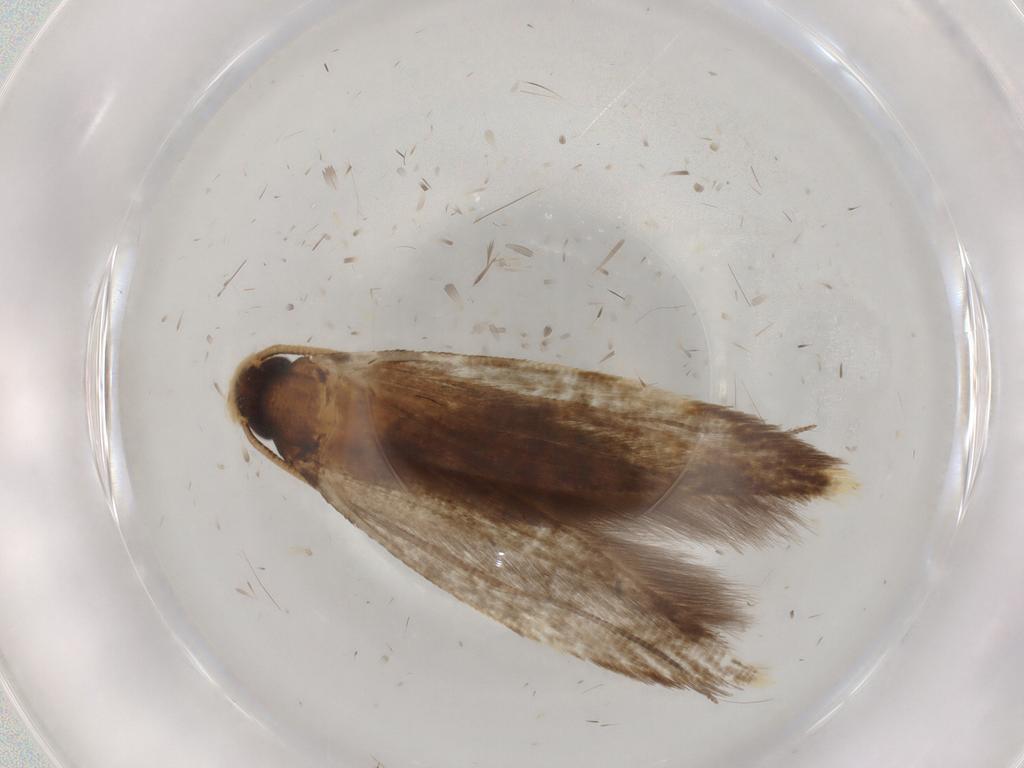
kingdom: Animalia
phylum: Arthropoda
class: Insecta
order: Lepidoptera
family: Tineidae
